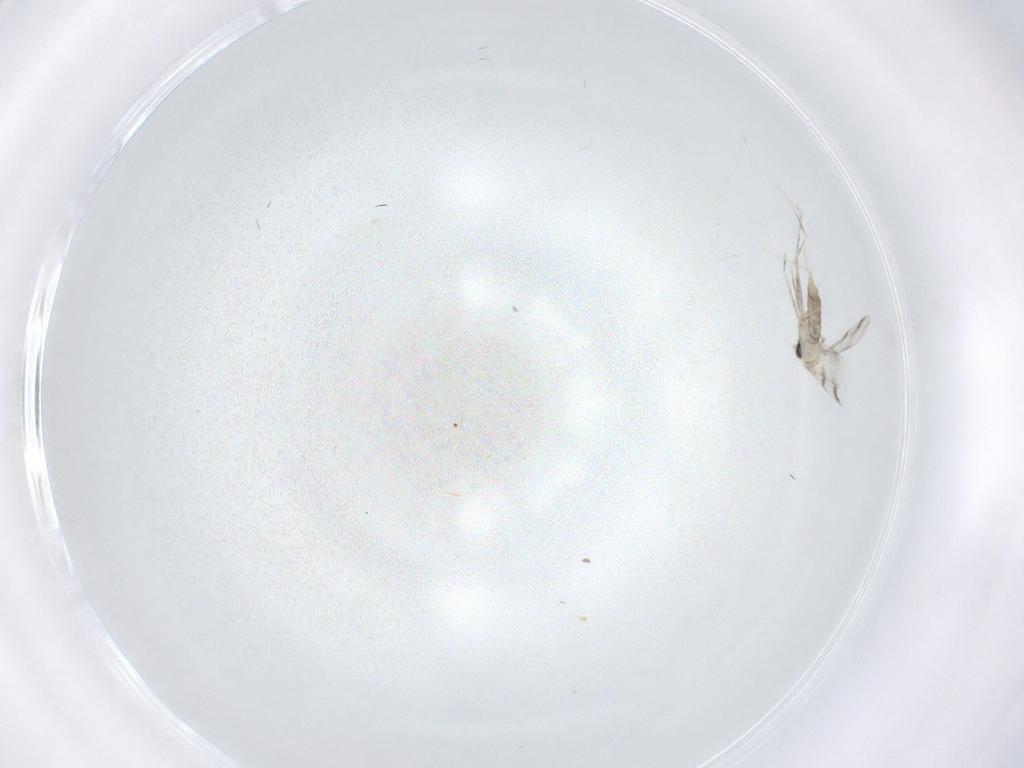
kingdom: Animalia
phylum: Arthropoda
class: Insecta
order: Diptera
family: Cecidomyiidae
